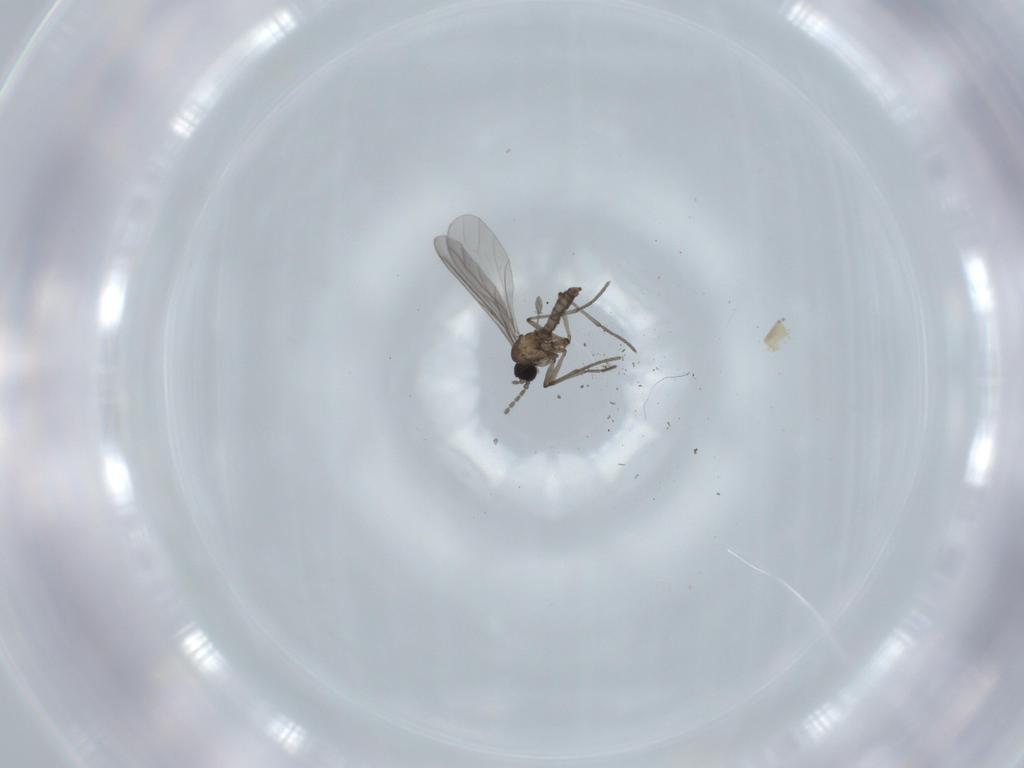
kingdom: Animalia
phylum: Arthropoda
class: Insecta
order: Diptera
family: Sciaridae
